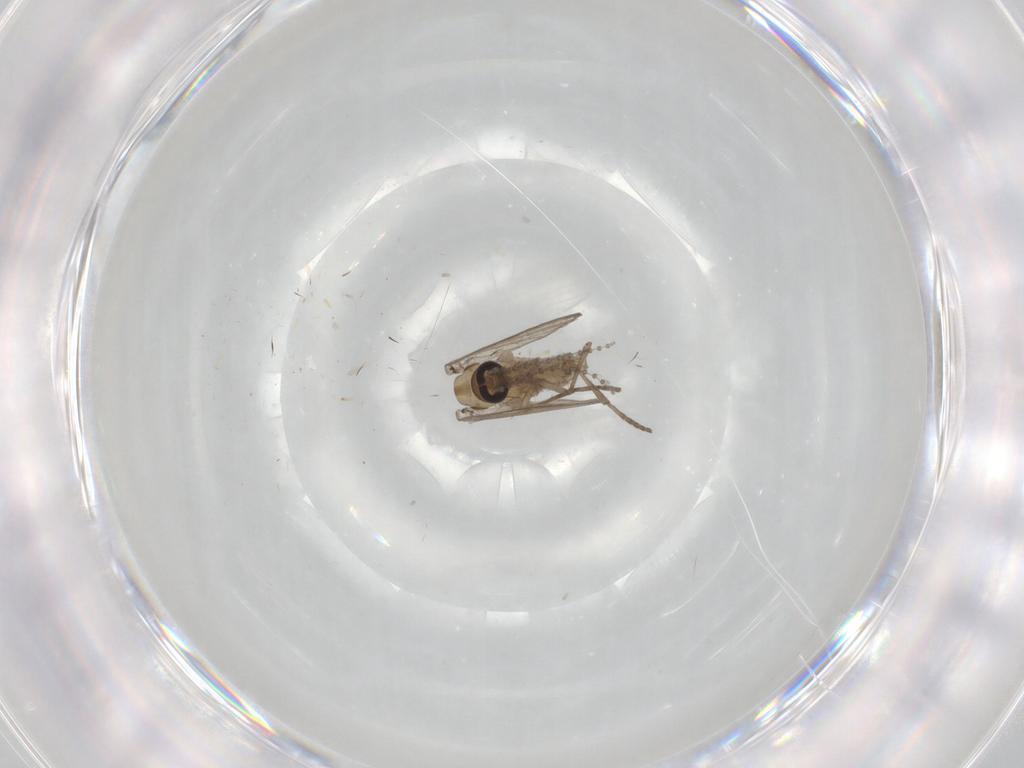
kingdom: Animalia
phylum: Arthropoda
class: Insecta
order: Diptera
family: Psychodidae
